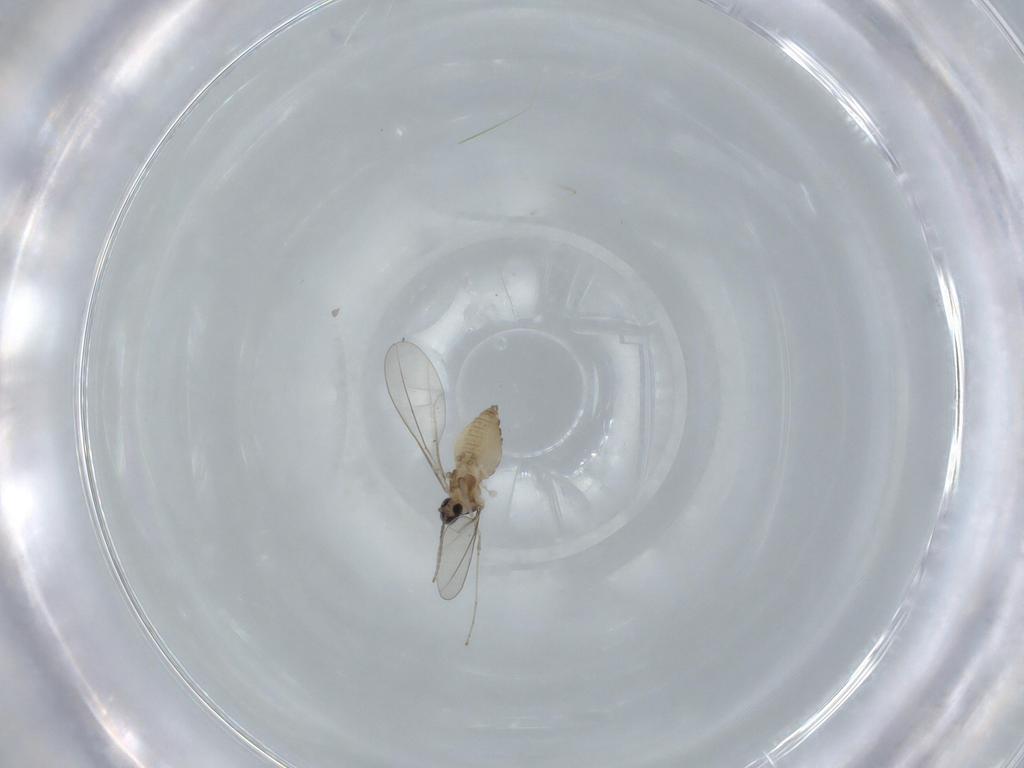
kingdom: Animalia
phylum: Arthropoda
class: Insecta
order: Diptera
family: Cecidomyiidae
